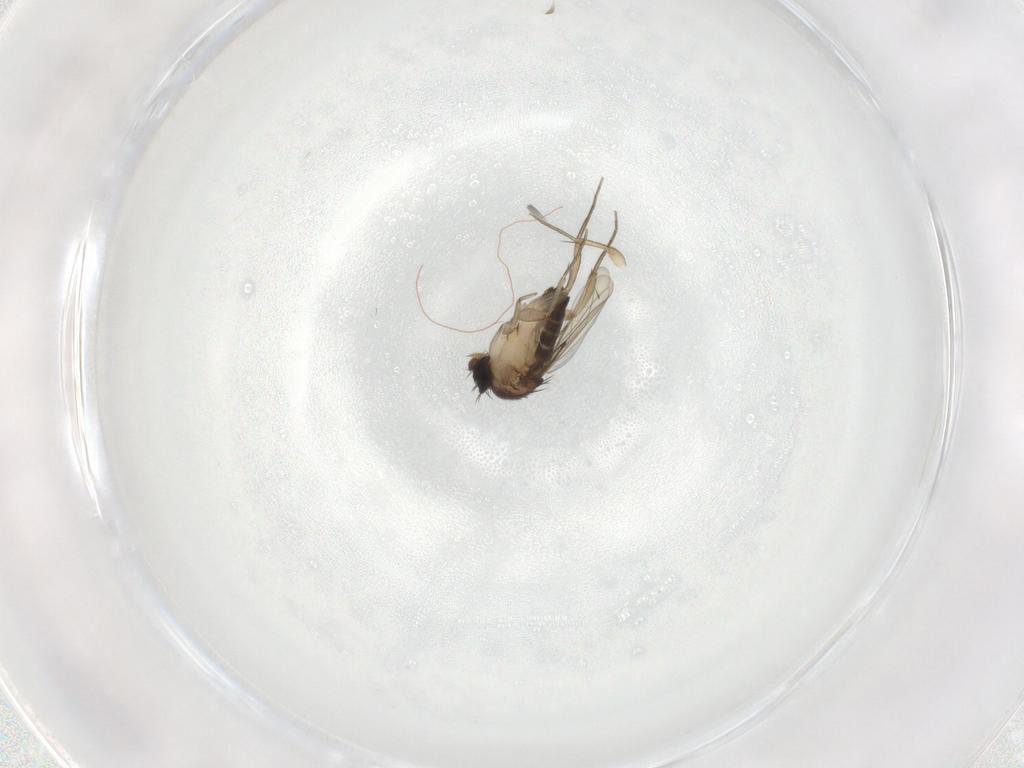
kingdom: Animalia
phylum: Arthropoda
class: Insecta
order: Diptera
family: Phoridae
